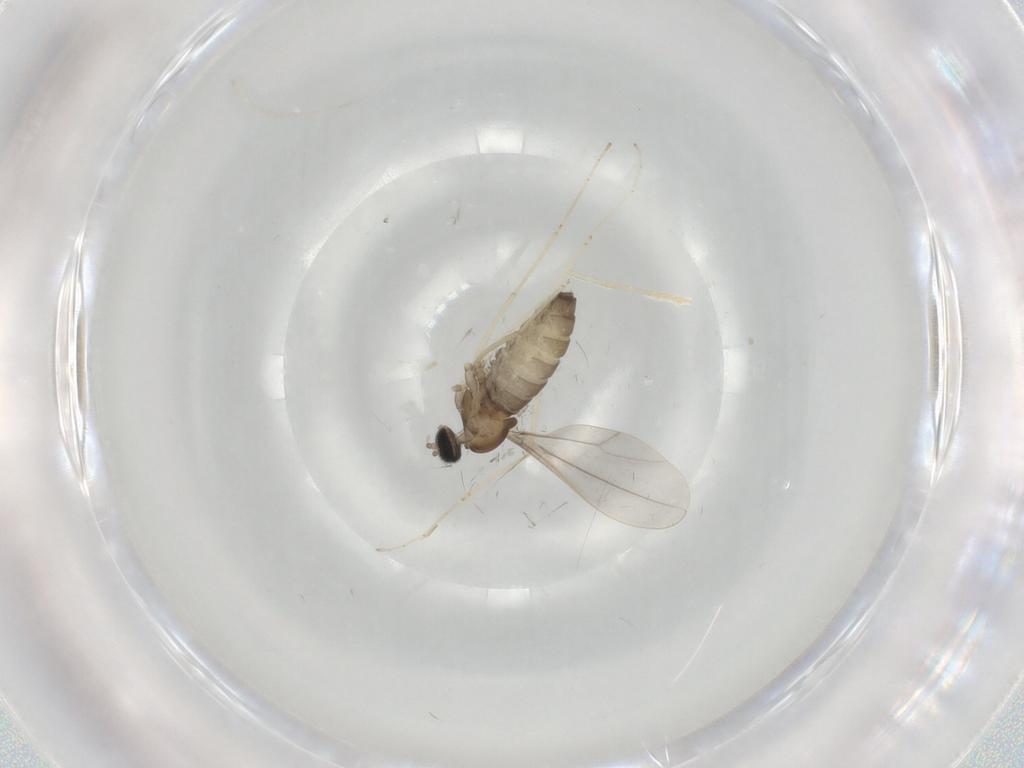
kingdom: Animalia
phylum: Arthropoda
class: Insecta
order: Diptera
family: Cecidomyiidae
